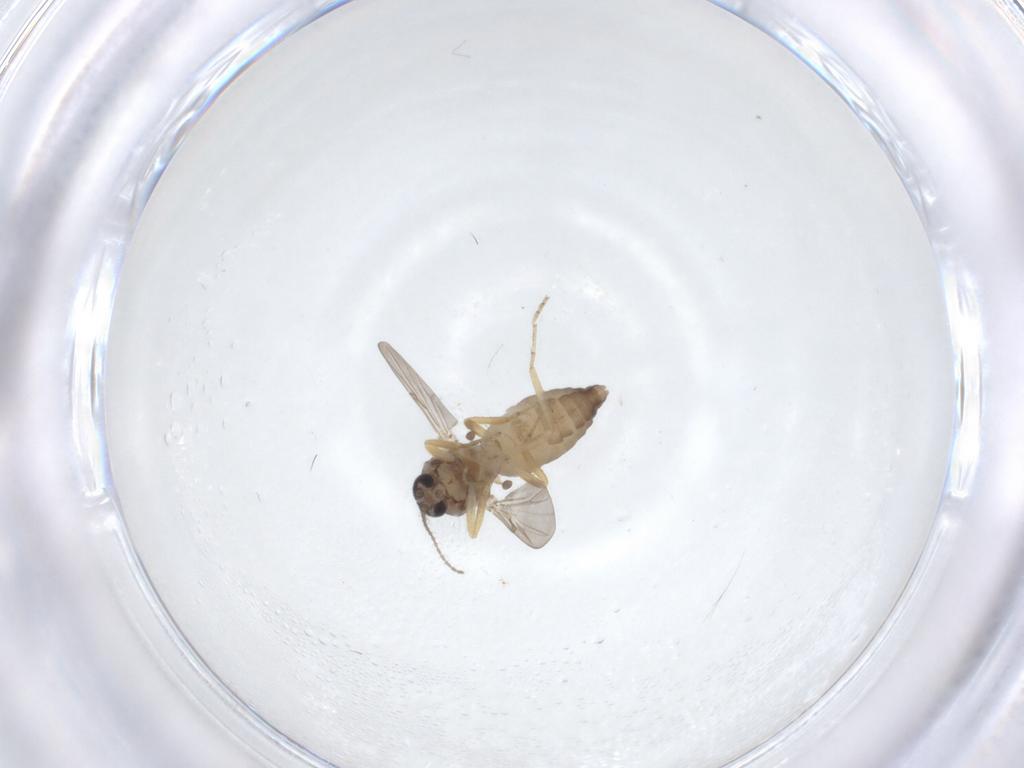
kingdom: Animalia
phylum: Arthropoda
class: Insecta
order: Diptera
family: Ceratopogonidae
